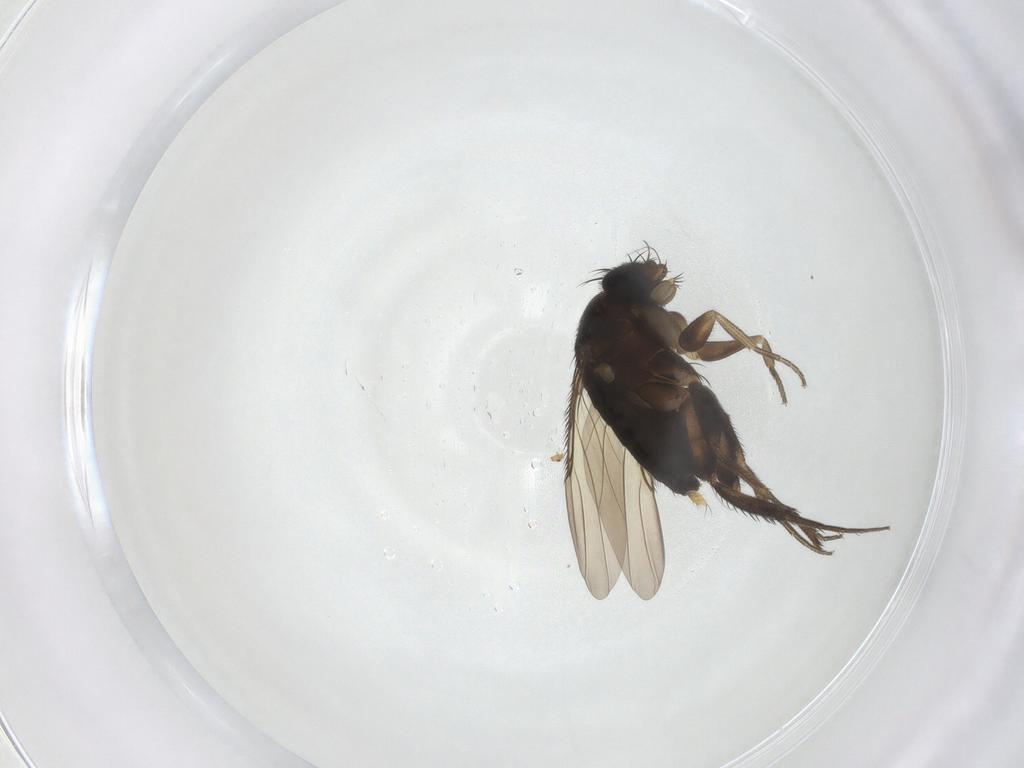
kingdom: Animalia
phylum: Arthropoda
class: Insecta
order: Diptera
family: Phoridae
